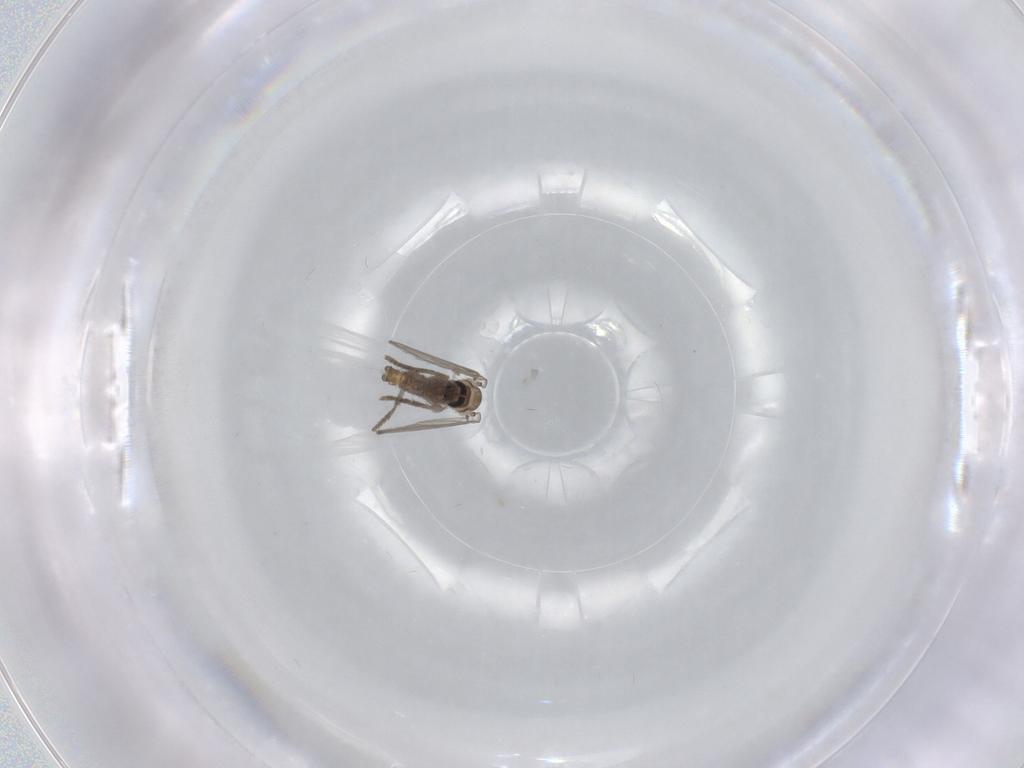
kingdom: Animalia
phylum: Arthropoda
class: Insecta
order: Diptera
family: Psychodidae
